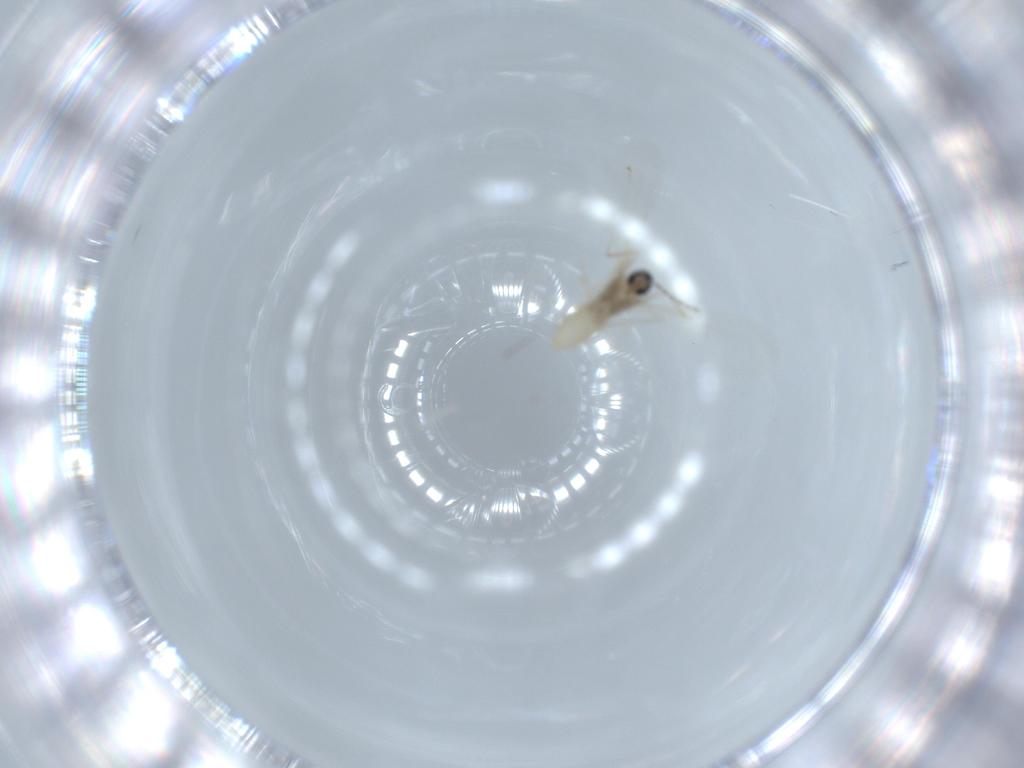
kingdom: Animalia
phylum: Arthropoda
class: Insecta
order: Diptera
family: Cecidomyiidae
